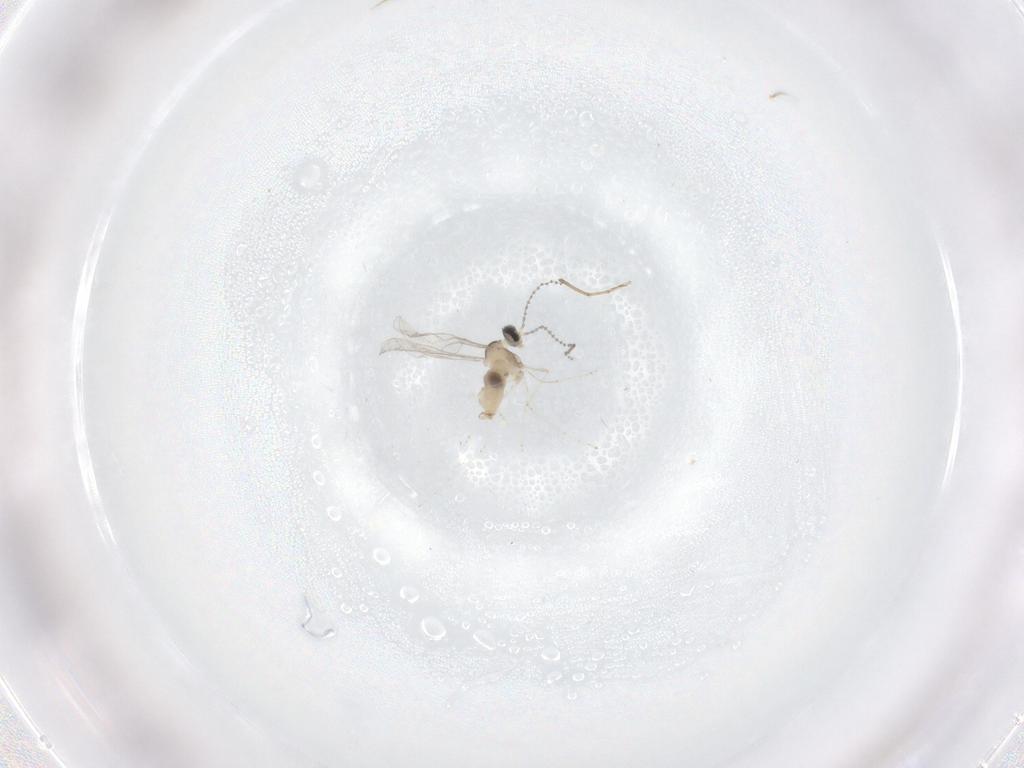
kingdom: Animalia
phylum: Arthropoda
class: Insecta
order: Diptera
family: Cecidomyiidae
